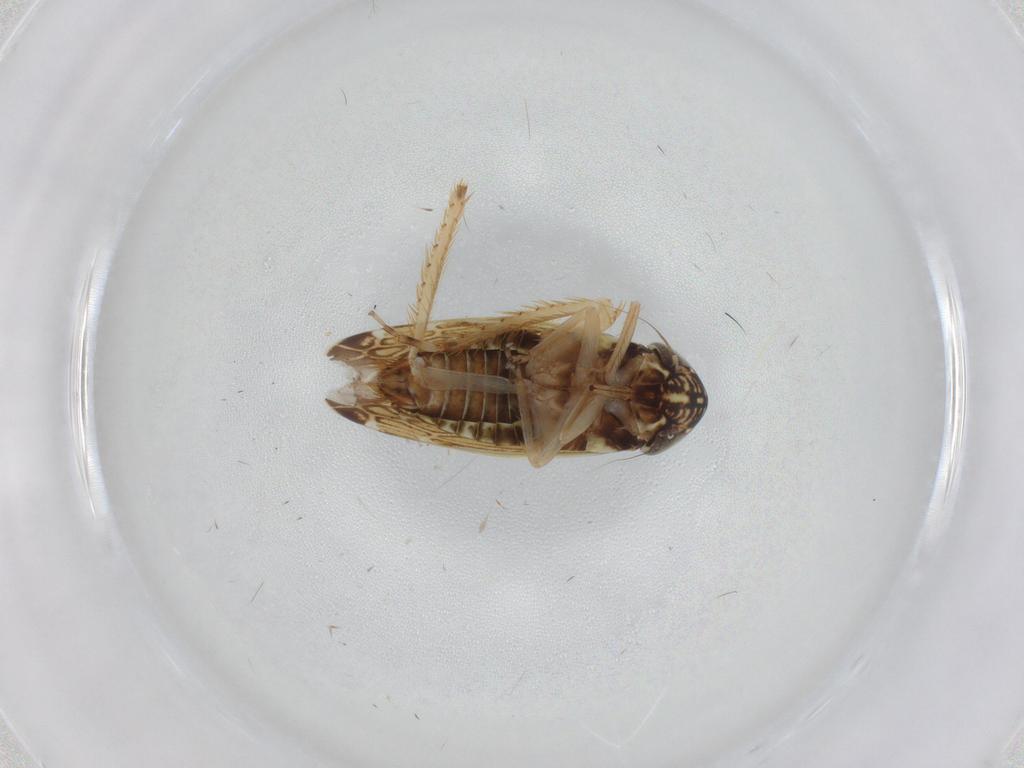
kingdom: Animalia
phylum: Arthropoda
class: Insecta
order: Hemiptera
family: Cicadellidae
